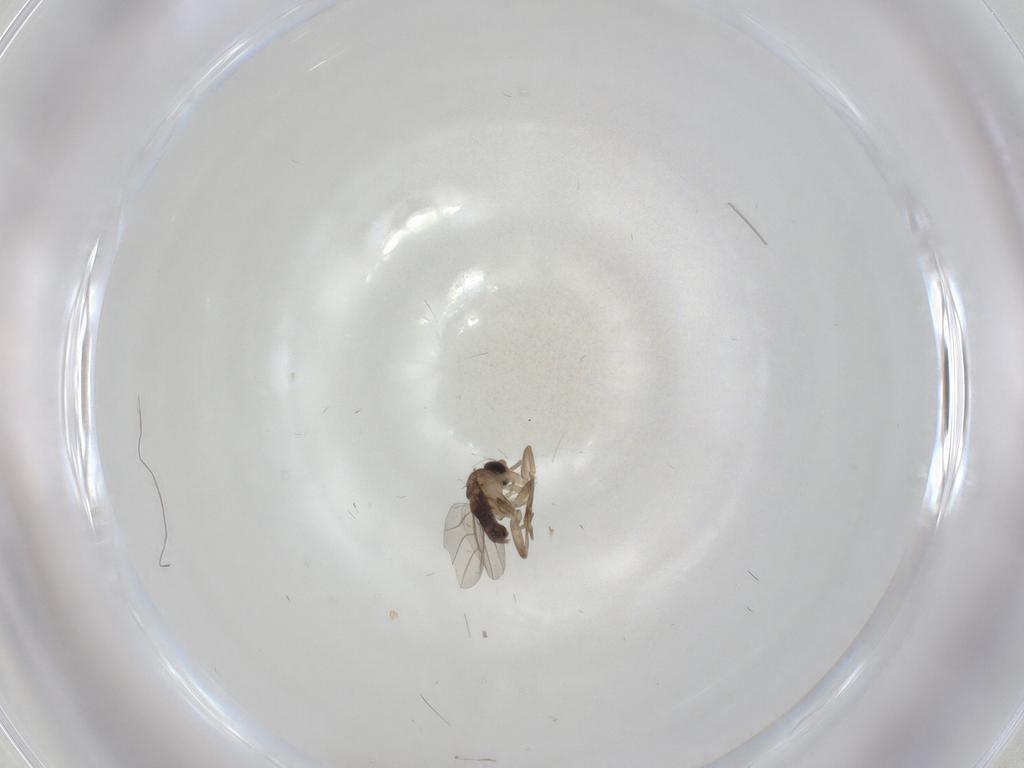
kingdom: Animalia
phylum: Arthropoda
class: Insecta
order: Diptera
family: Phoridae
